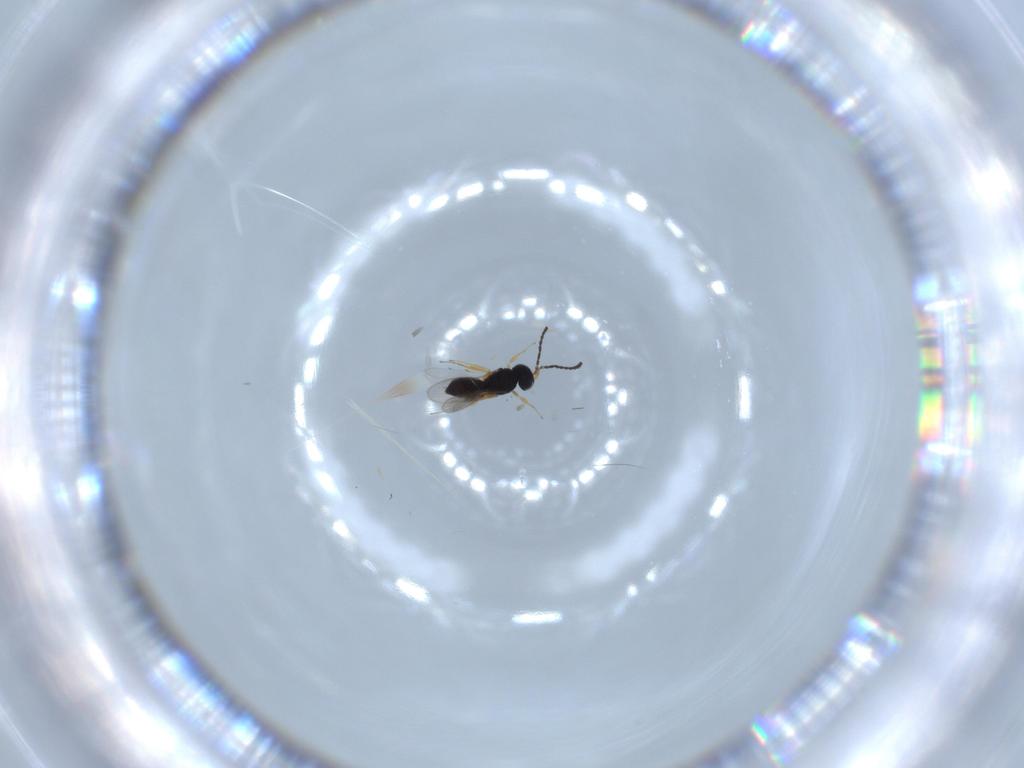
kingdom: Animalia
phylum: Arthropoda
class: Insecta
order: Hymenoptera
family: Scelionidae
